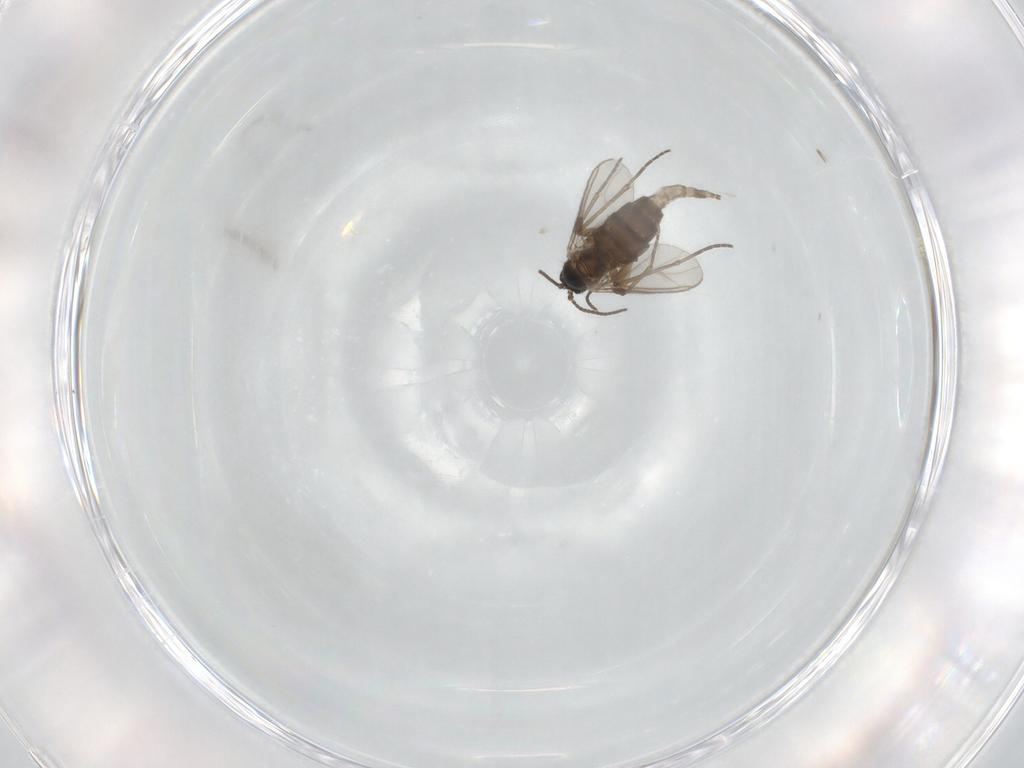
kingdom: Animalia
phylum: Arthropoda
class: Insecta
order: Diptera
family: Sciaridae
